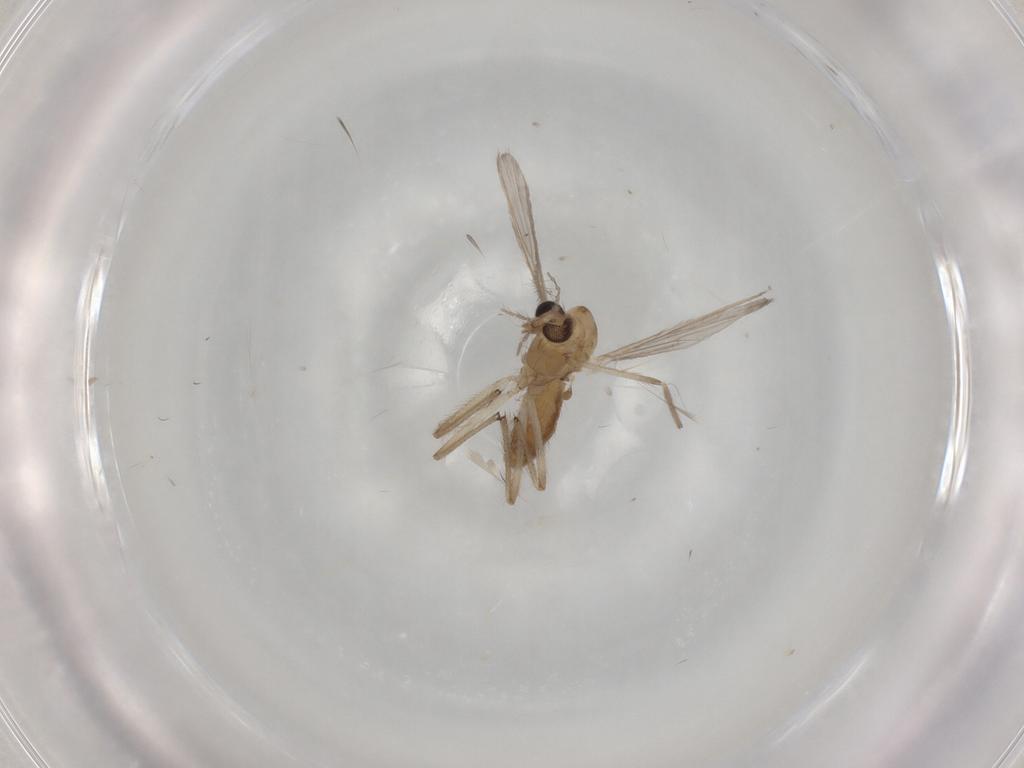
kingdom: Animalia
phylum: Arthropoda
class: Insecta
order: Diptera
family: Chironomidae
